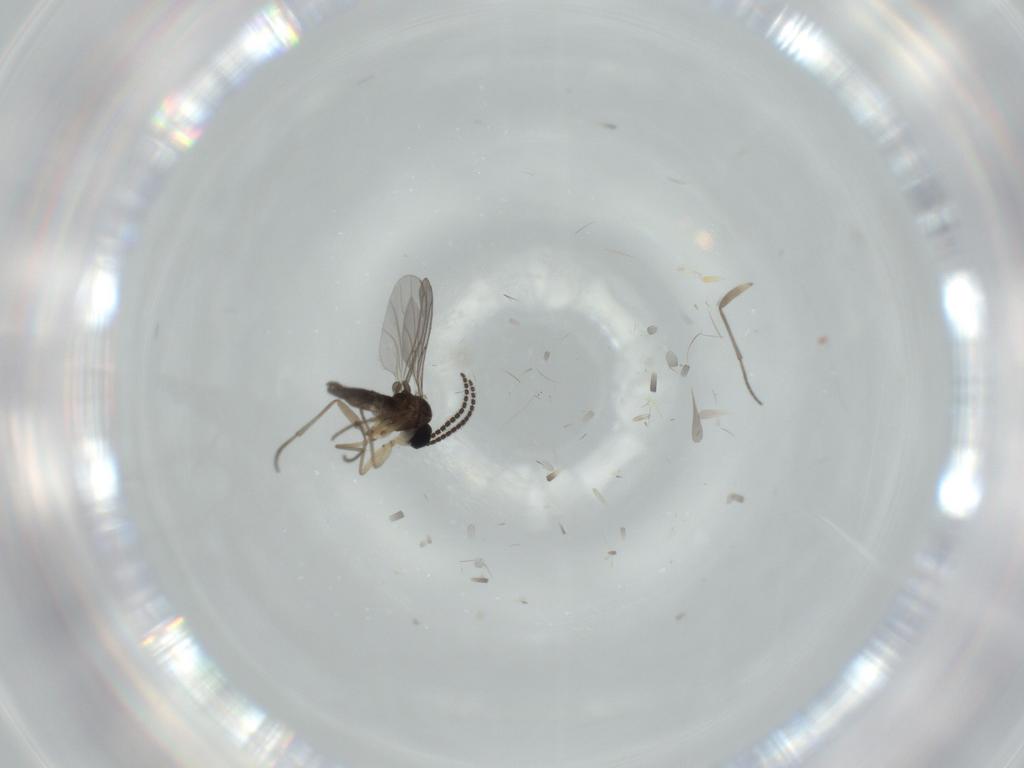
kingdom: Animalia
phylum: Arthropoda
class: Insecta
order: Diptera
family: Sciaridae
